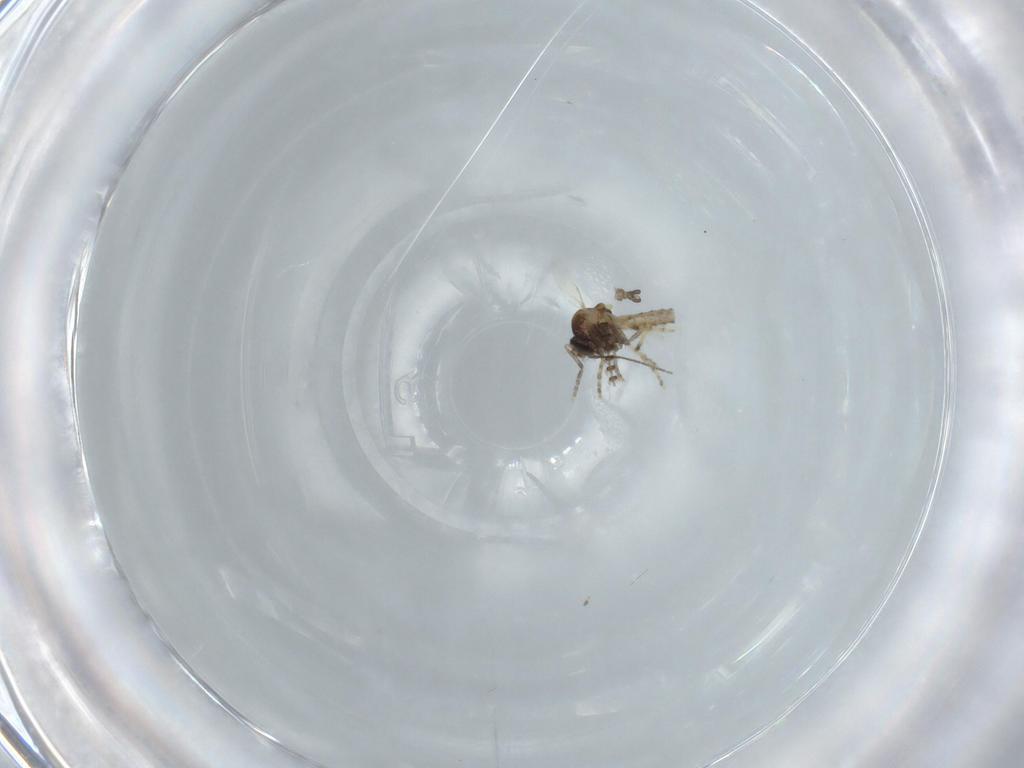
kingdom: Animalia
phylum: Arthropoda
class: Insecta
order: Diptera
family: Ceratopogonidae
